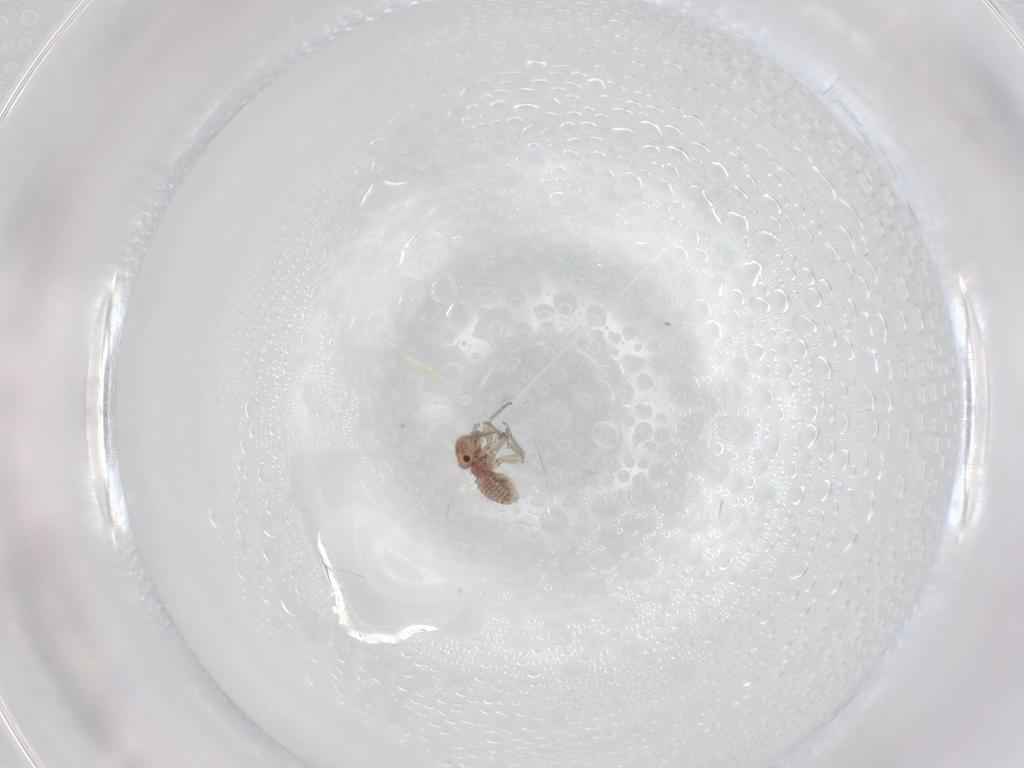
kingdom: Animalia
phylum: Arthropoda
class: Insecta
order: Psocodea
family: Lachesillidae
